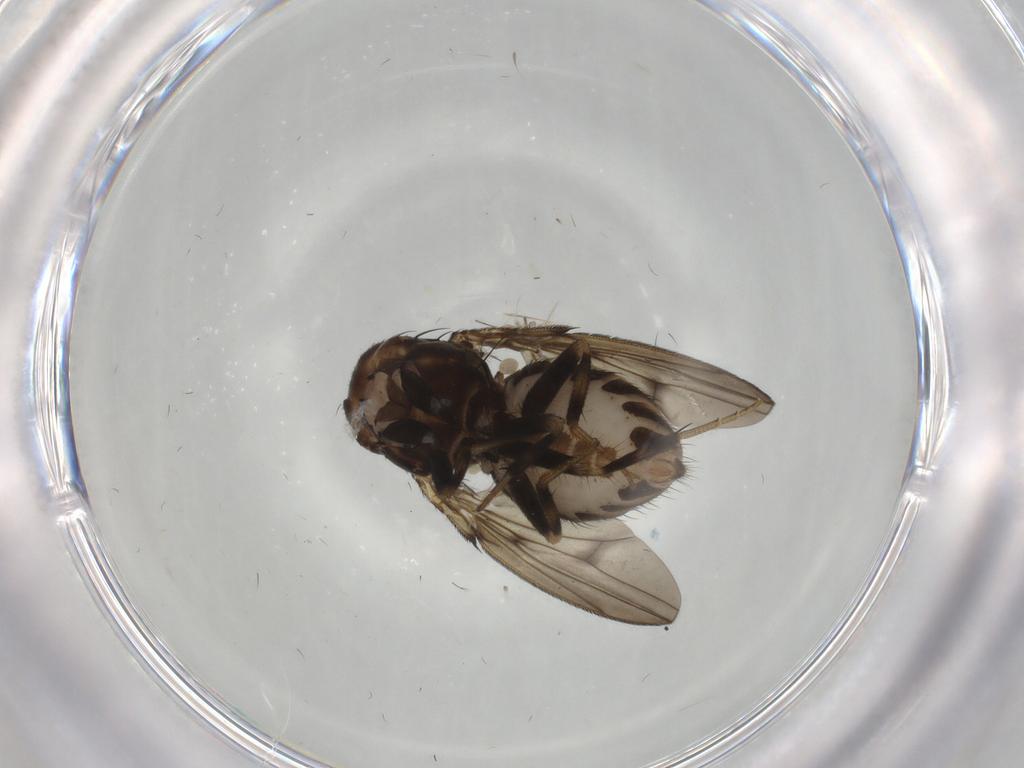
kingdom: Animalia
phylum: Arthropoda
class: Insecta
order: Diptera
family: Drosophilidae
